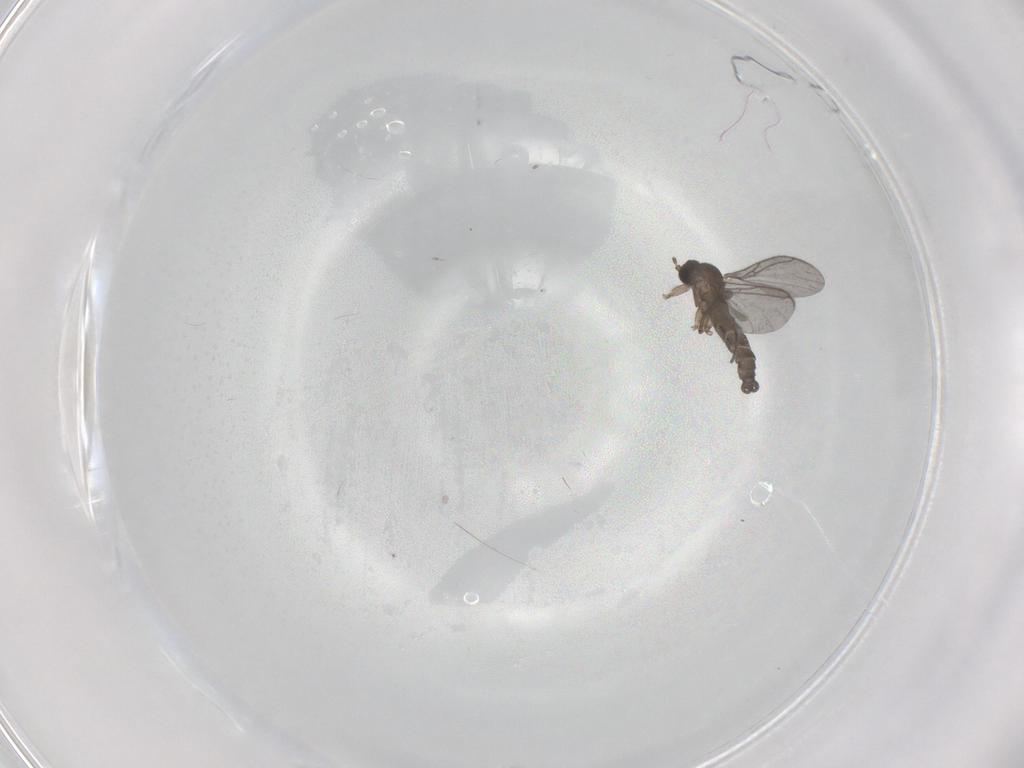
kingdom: Animalia
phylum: Arthropoda
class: Insecta
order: Diptera
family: Cecidomyiidae
